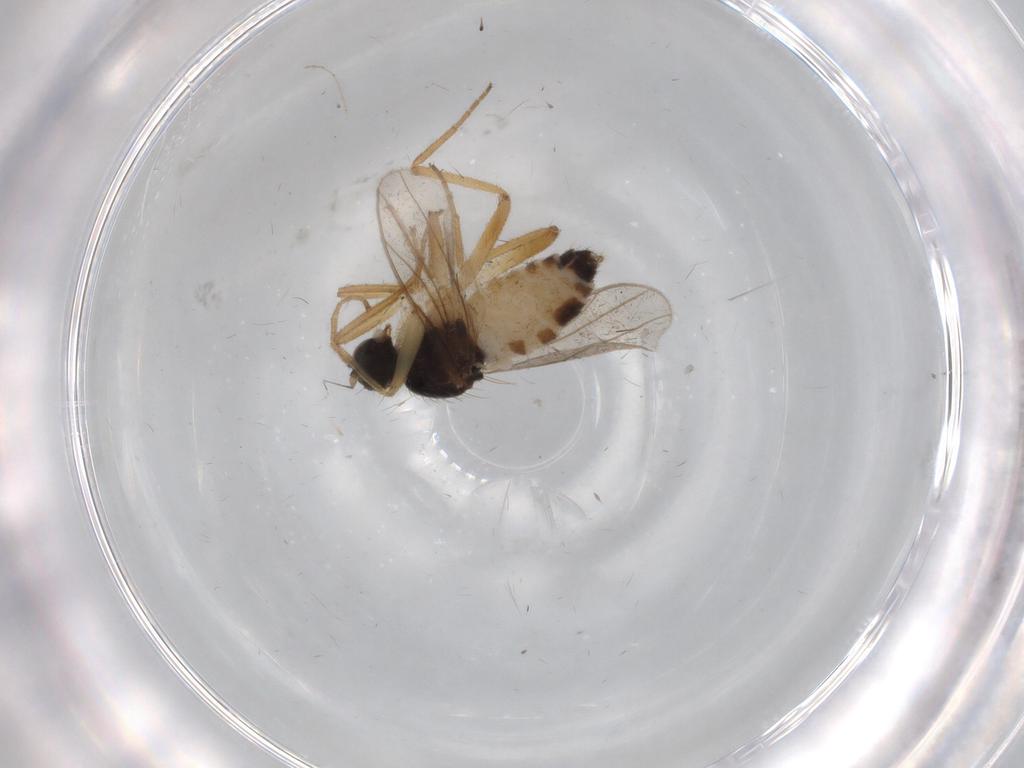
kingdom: Animalia
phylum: Arthropoda
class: Insecta
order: Diptera
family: Hybotidae
